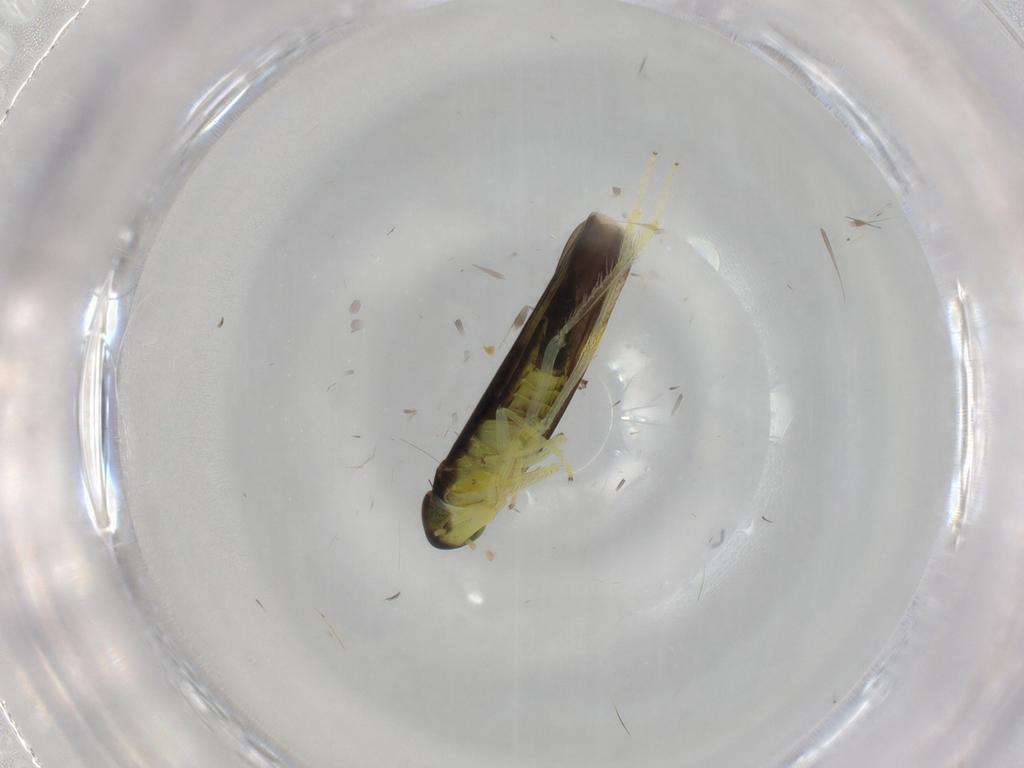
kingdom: Animalia
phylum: Arthropoda
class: Insecta
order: Hemiptera
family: Cicadellidae
